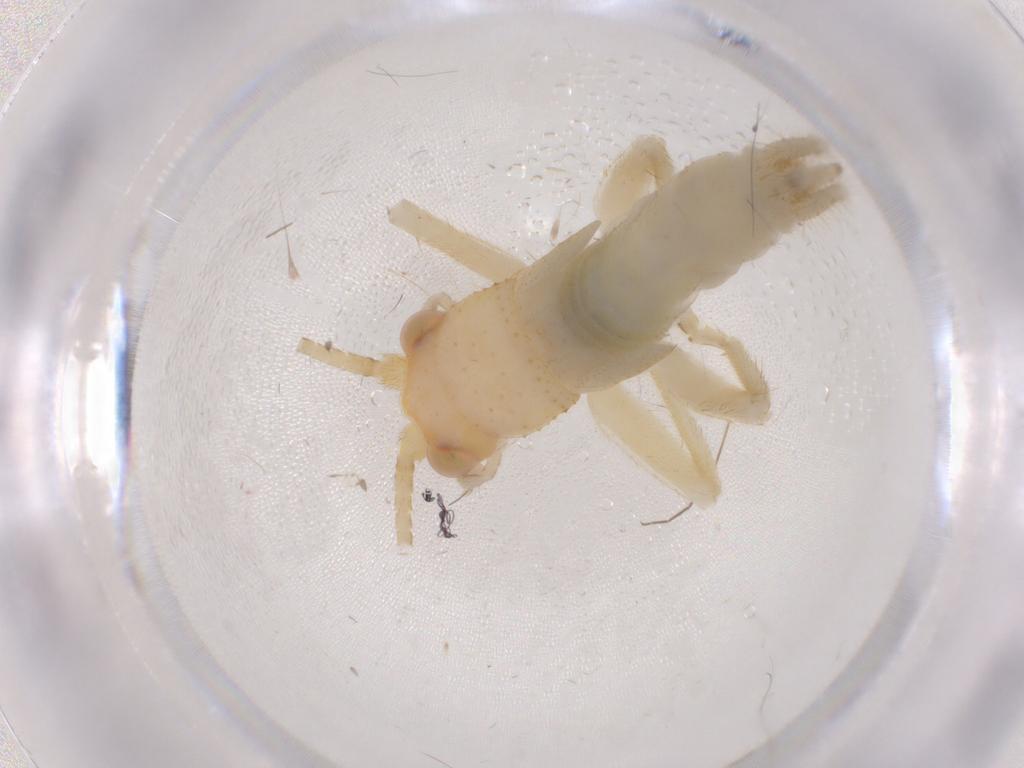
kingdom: Animalia
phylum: Arthropoda
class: Insecta
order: Orthoptera
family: Trigonidiidae
